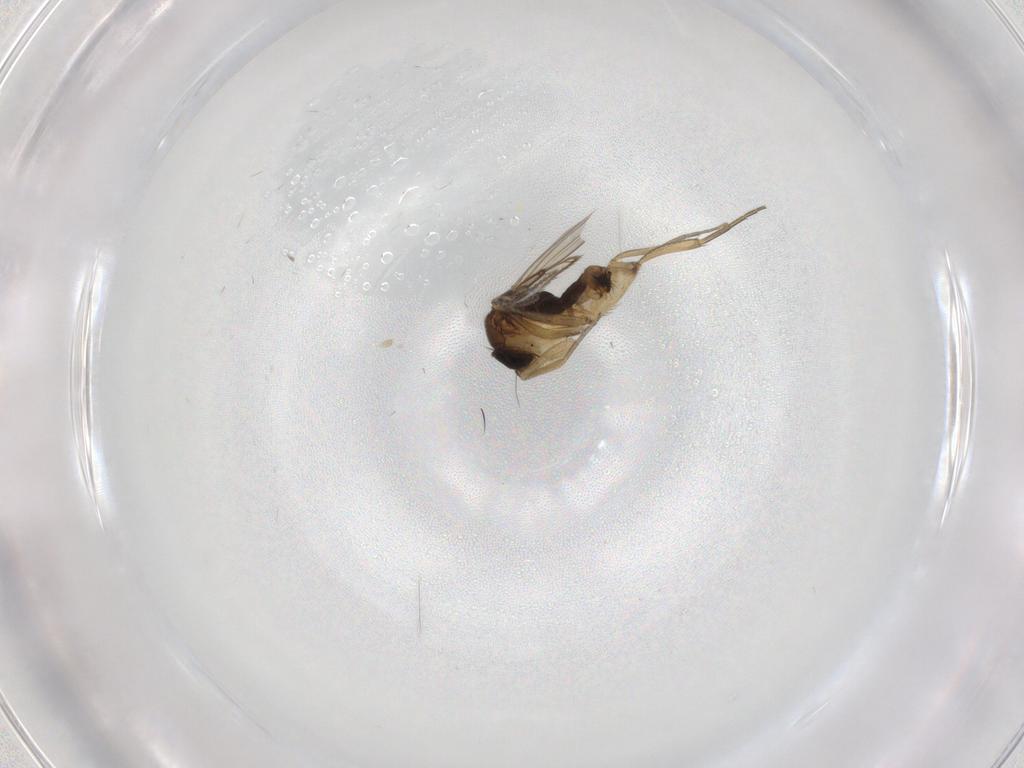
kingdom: Animalia
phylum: Arthropoda
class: Insecta
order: Diptera
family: Phoridae
